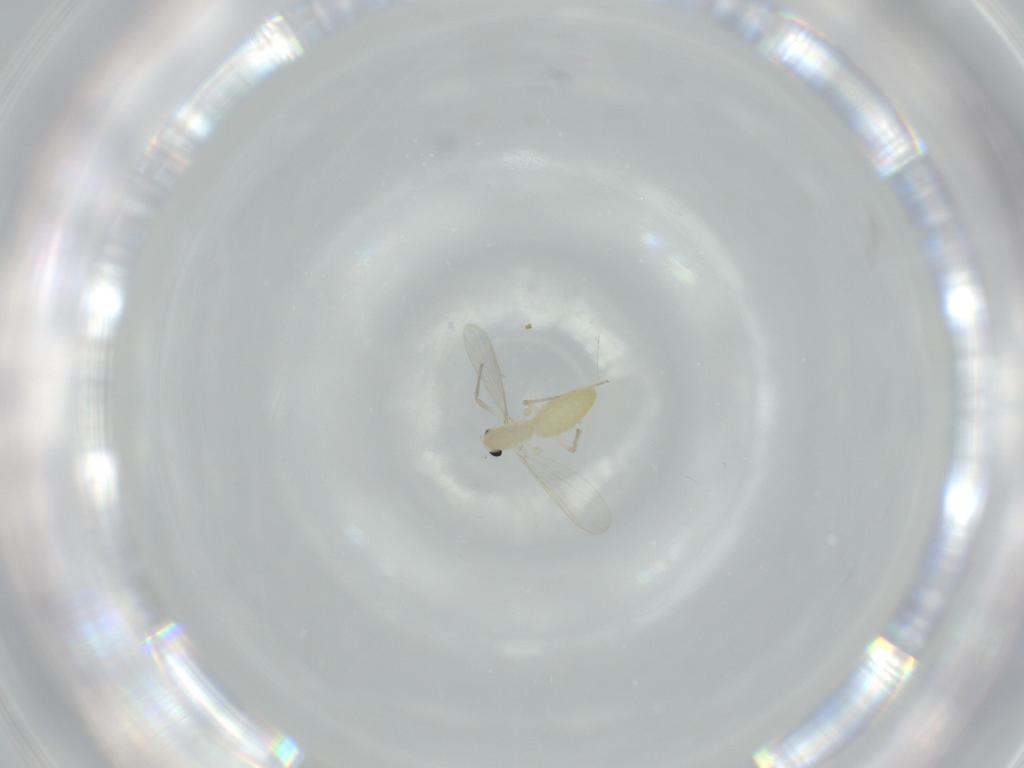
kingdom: Animalia
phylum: Arthropoda
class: Insecta
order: Diptera
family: Chironomidae
